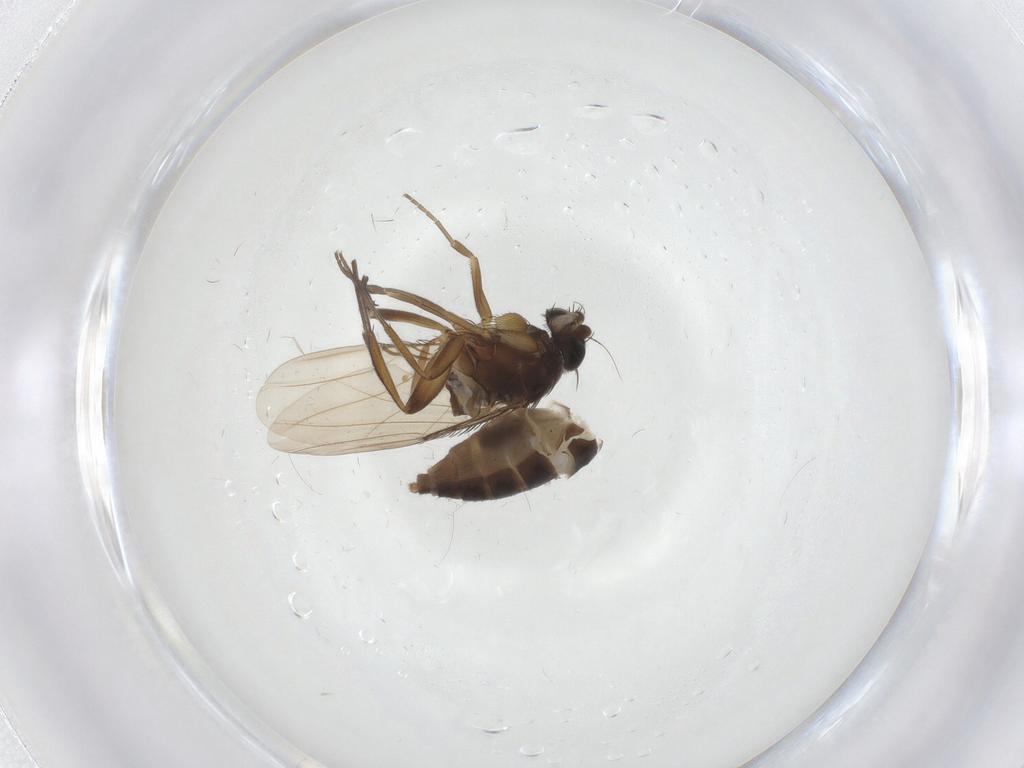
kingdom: Animalia
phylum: Arthropoda
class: Insecta
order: Diptera
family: Phoridae
